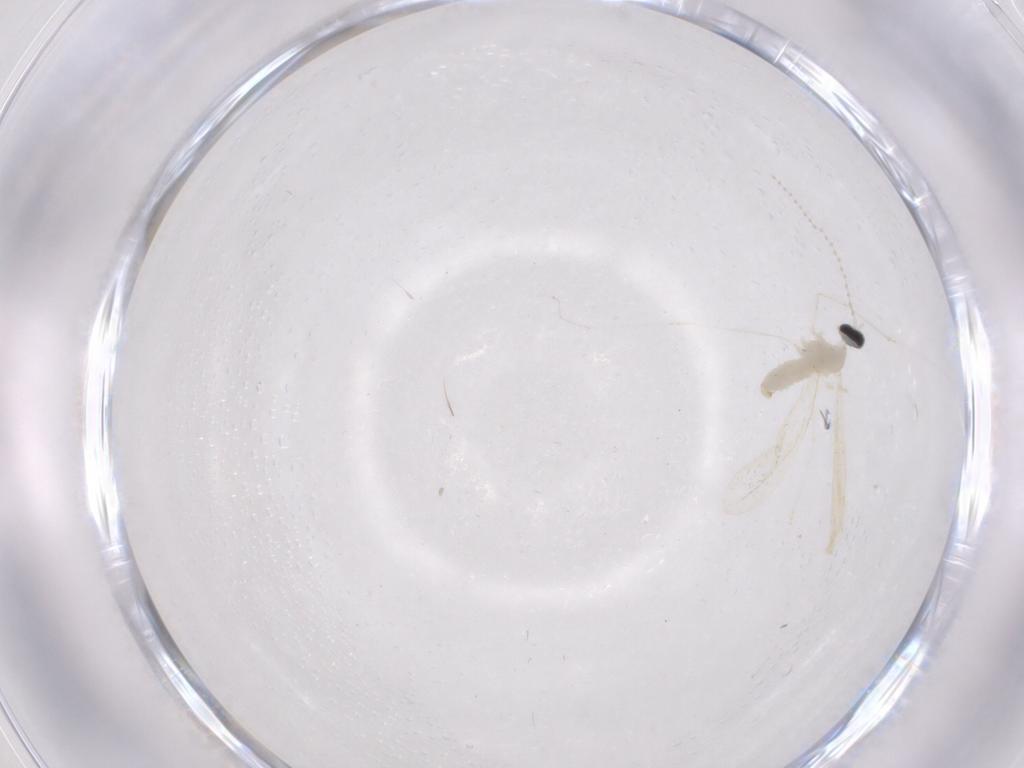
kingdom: Animalia
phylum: Arthropoda
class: Insecta
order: Diptera
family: Cecidomyiidae
